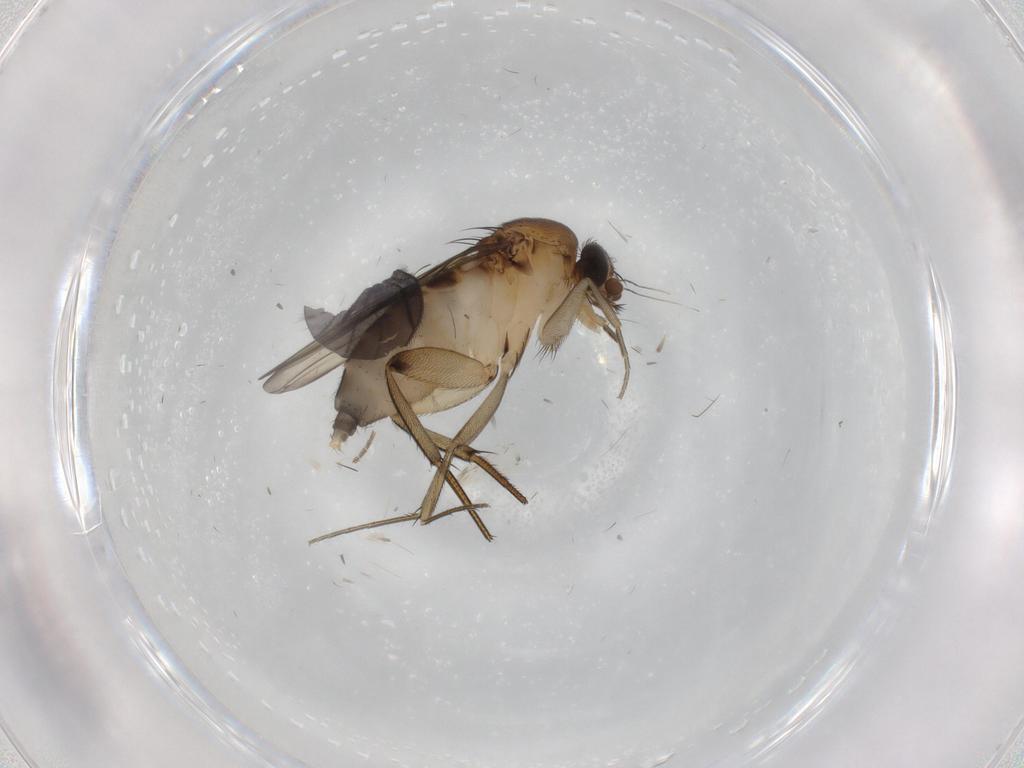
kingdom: Animalia
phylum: Arthropoda
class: Insecta
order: Diptera
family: Phoridae
